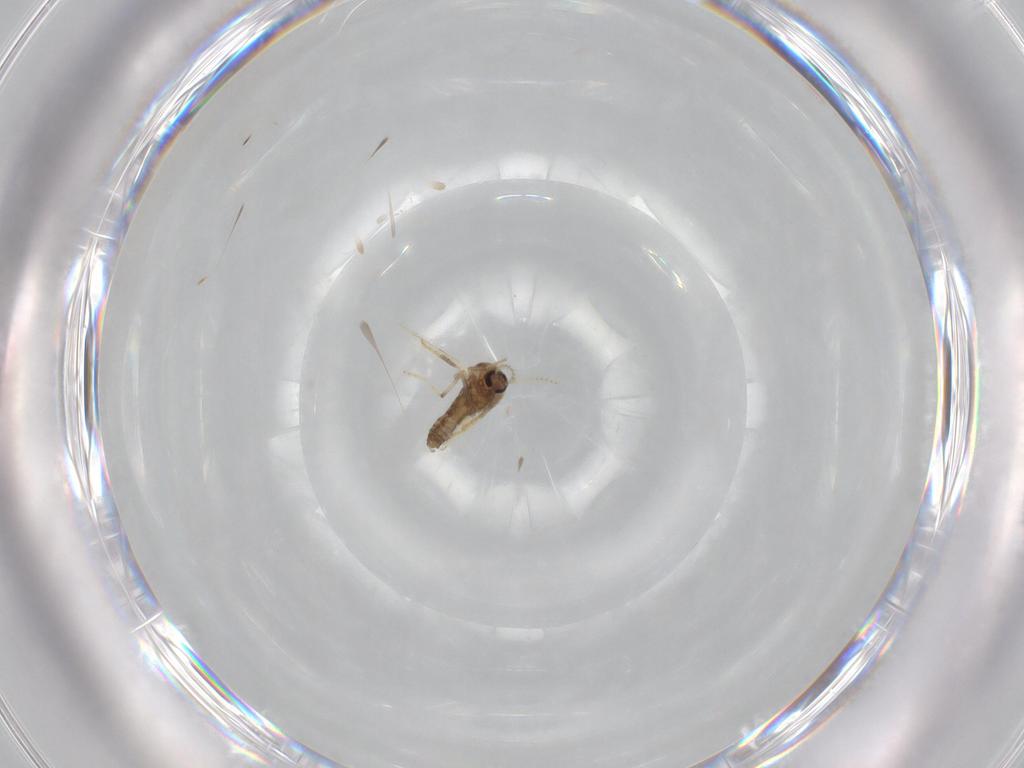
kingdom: Animalia
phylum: Arthropoda
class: Insecta
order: Diptera
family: Ceratopogonidae
